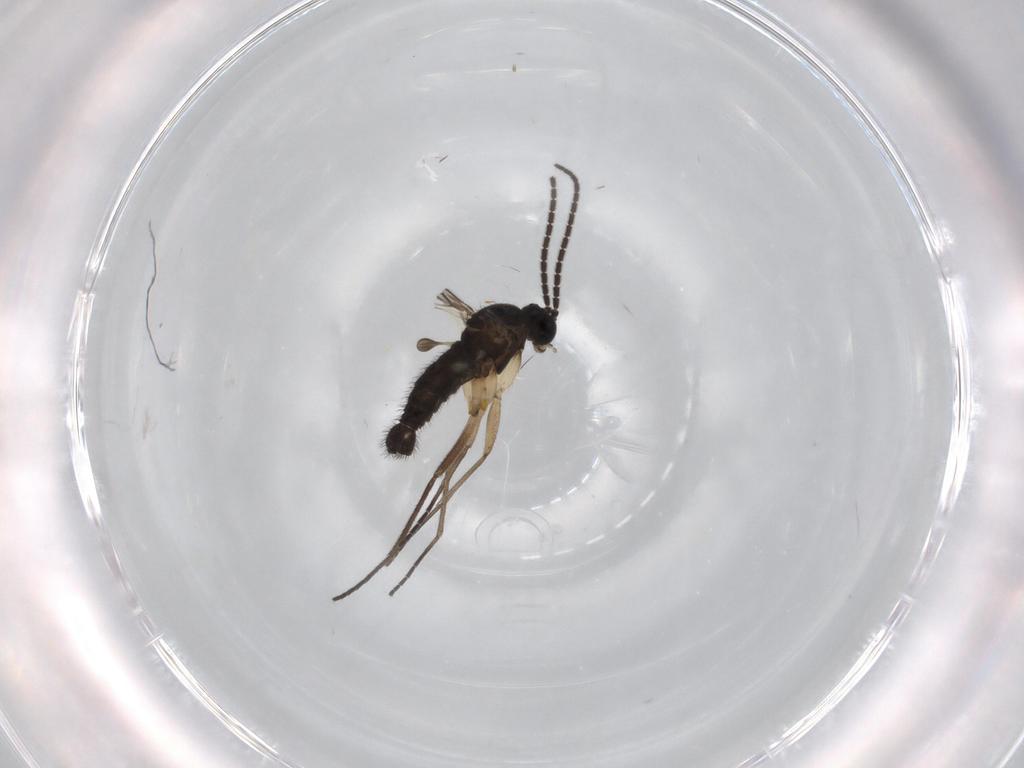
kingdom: Animalia
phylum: Arthropoda
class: Insecta
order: Diptera
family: Sciaridae
